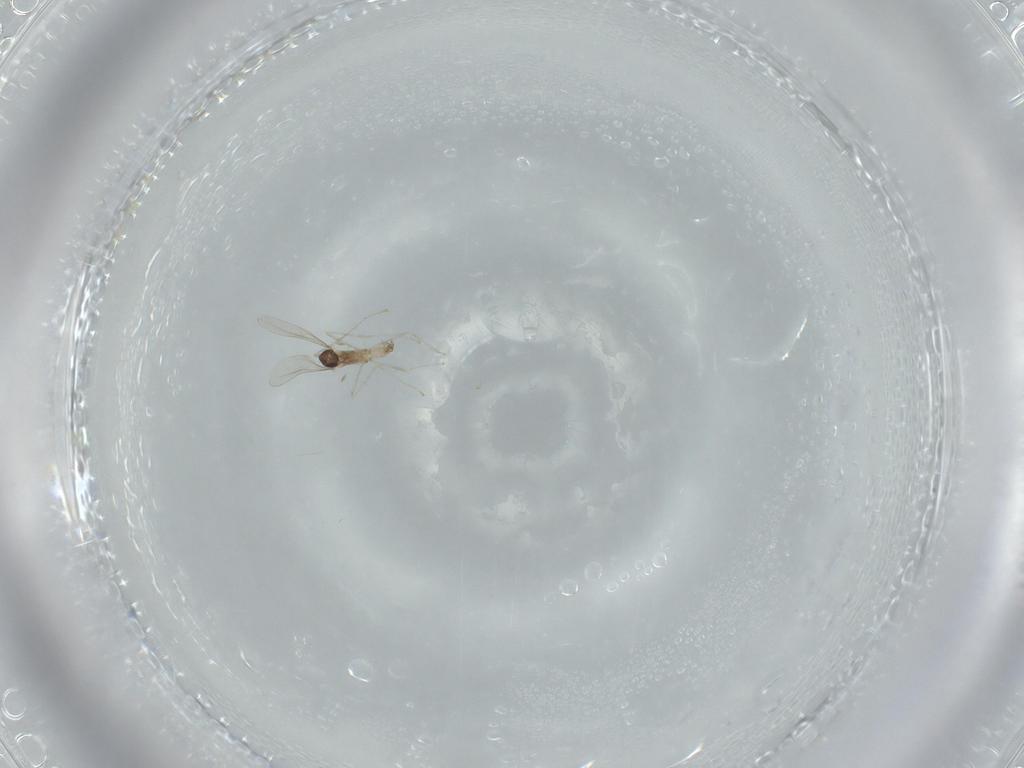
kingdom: Animalia
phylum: Arthropoda
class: Insecta
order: Diptera
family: Cecidomyiidae
